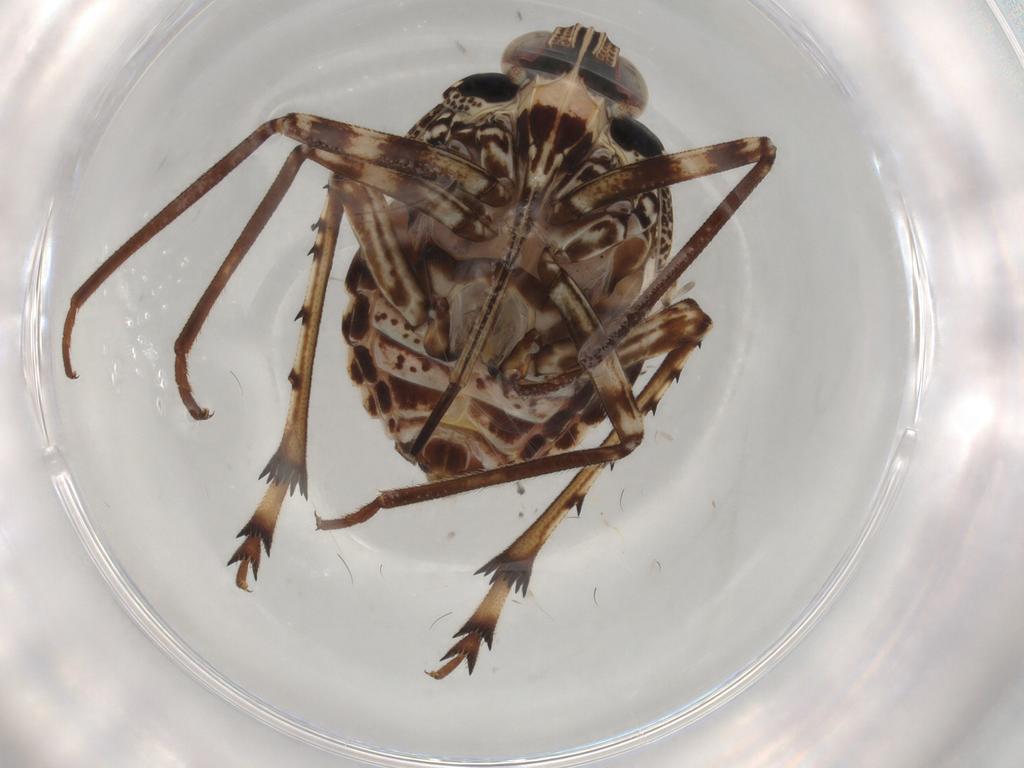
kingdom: Animalia
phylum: Arthropoda
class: Insecta
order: Hemiptera
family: Dictyopharidae
